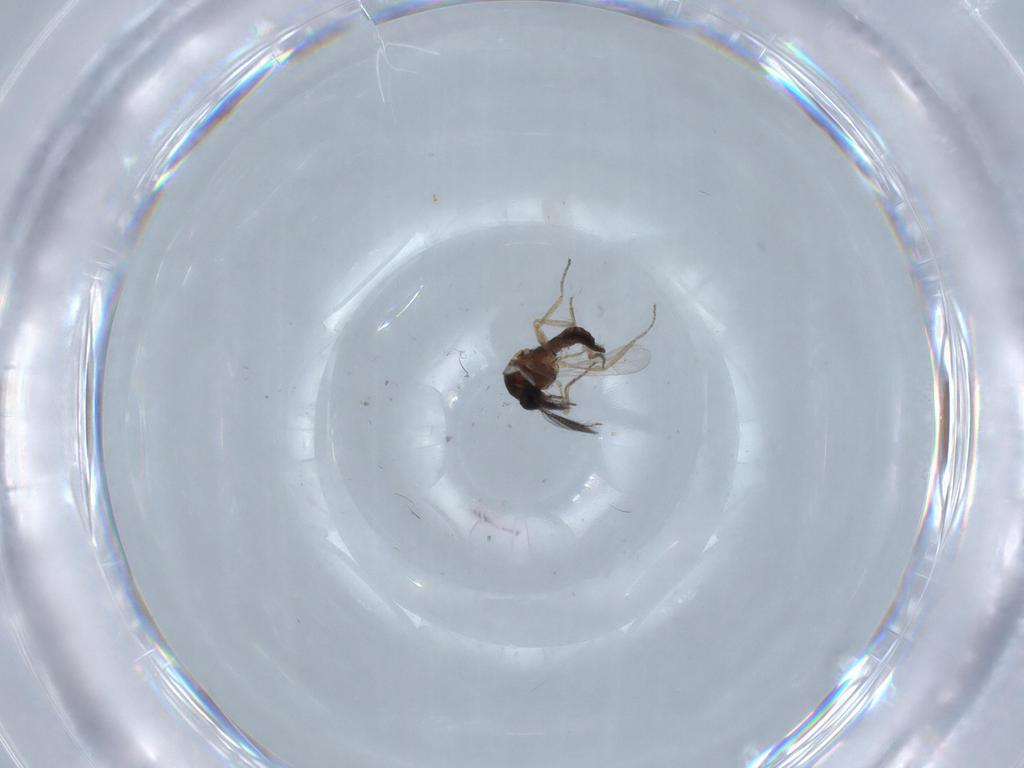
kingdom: Animalia
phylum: Arthropoda
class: Insecta
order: Diptera
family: Ceratopogonidae
